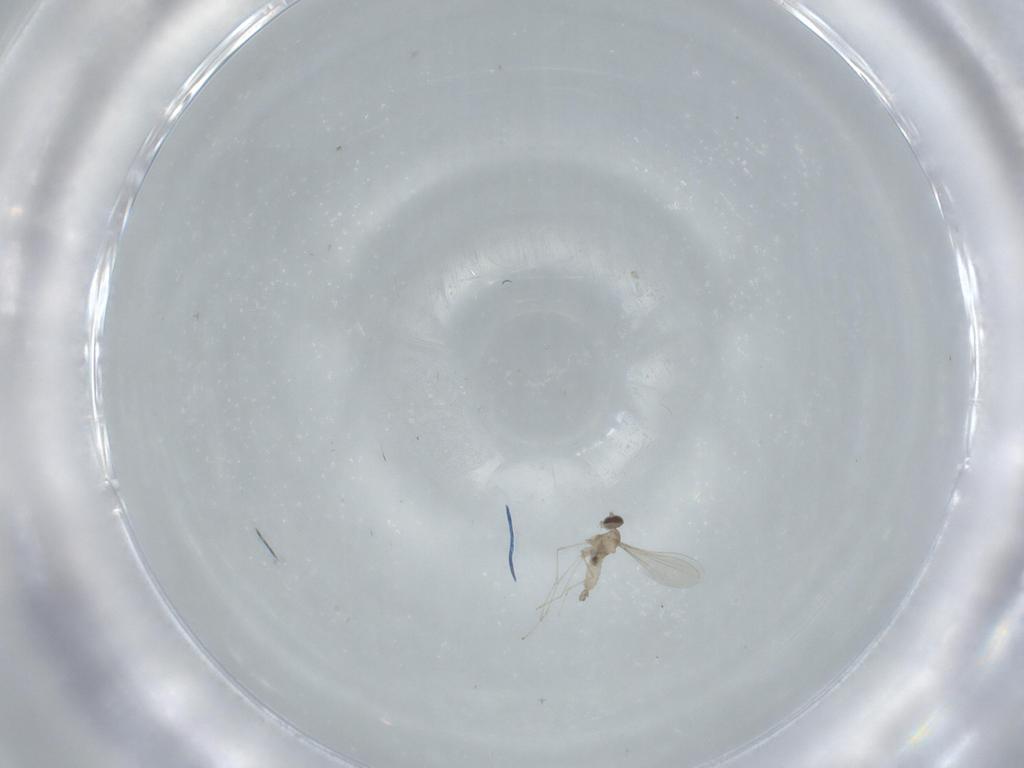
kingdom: Animalia
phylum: Arthropoda
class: Insecta
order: Diptera
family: Cecidomyiidae
